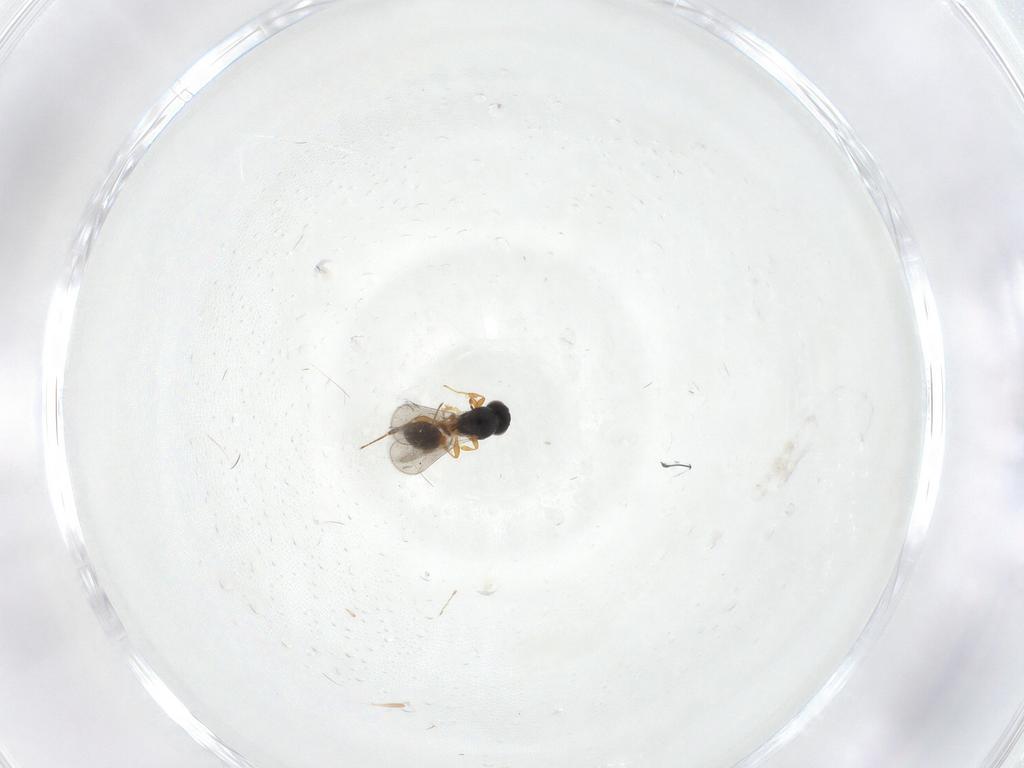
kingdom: Animalia
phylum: Arthropoda
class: Insecta
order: Hymenoptera
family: Platygastridae
